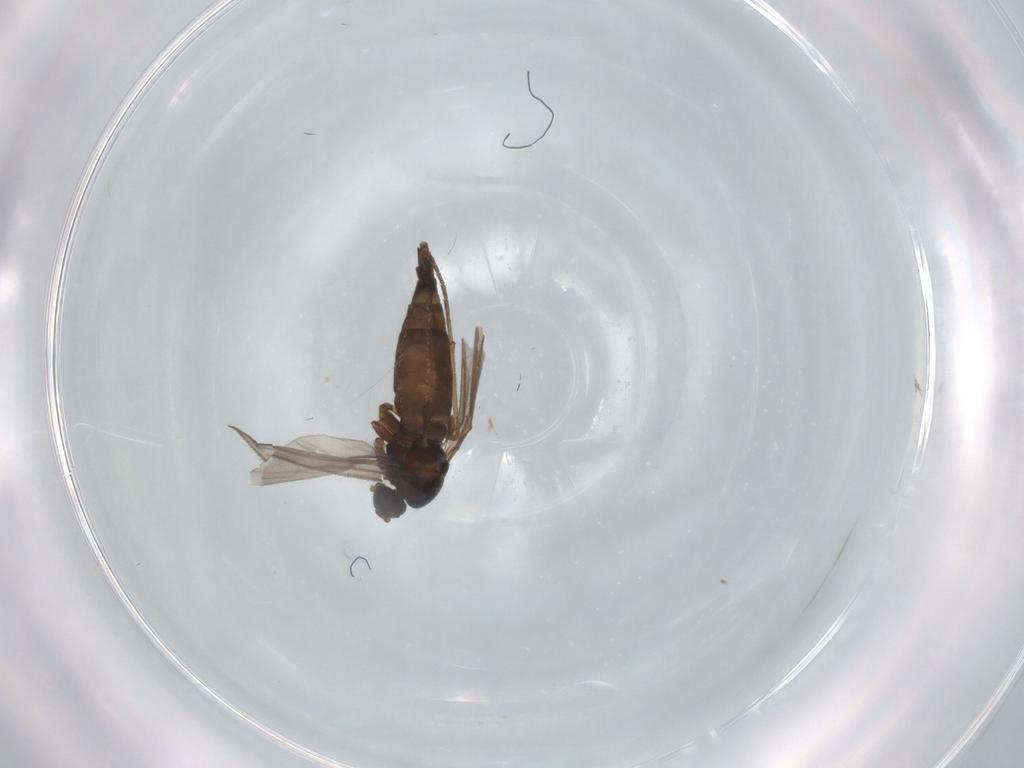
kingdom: Animalia
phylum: Arthropoda
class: Insecta
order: Diptera
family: Sciaridae
